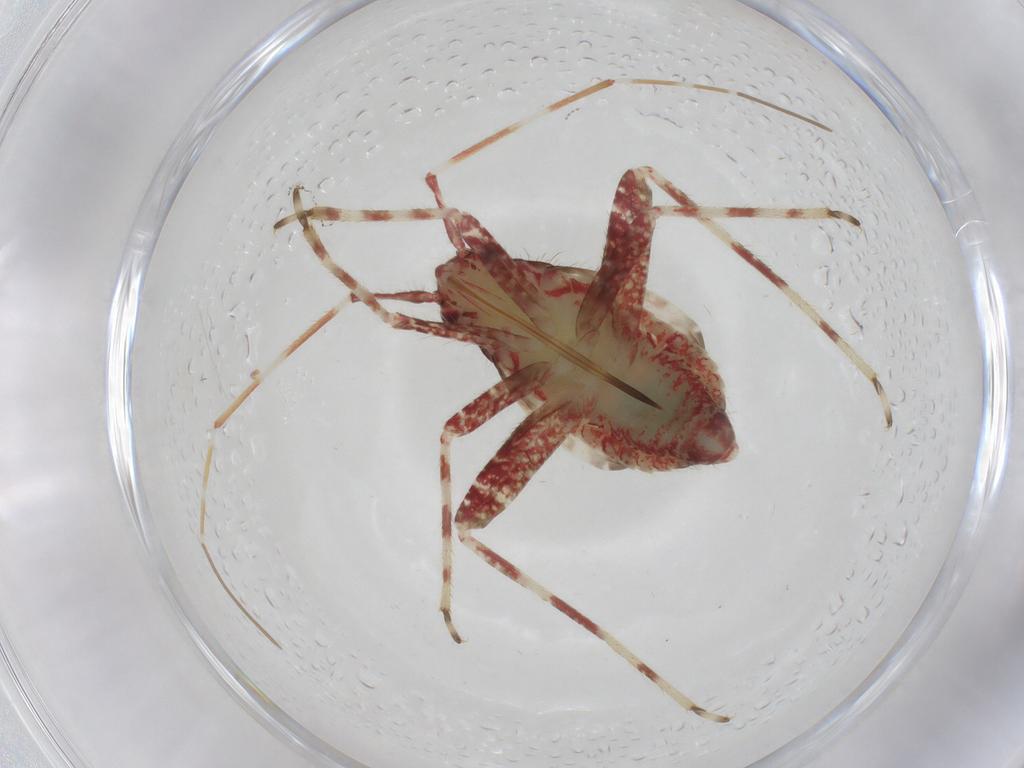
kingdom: Animalia
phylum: Arthropoda
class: Insecta
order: Hemiptera
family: Miridae
